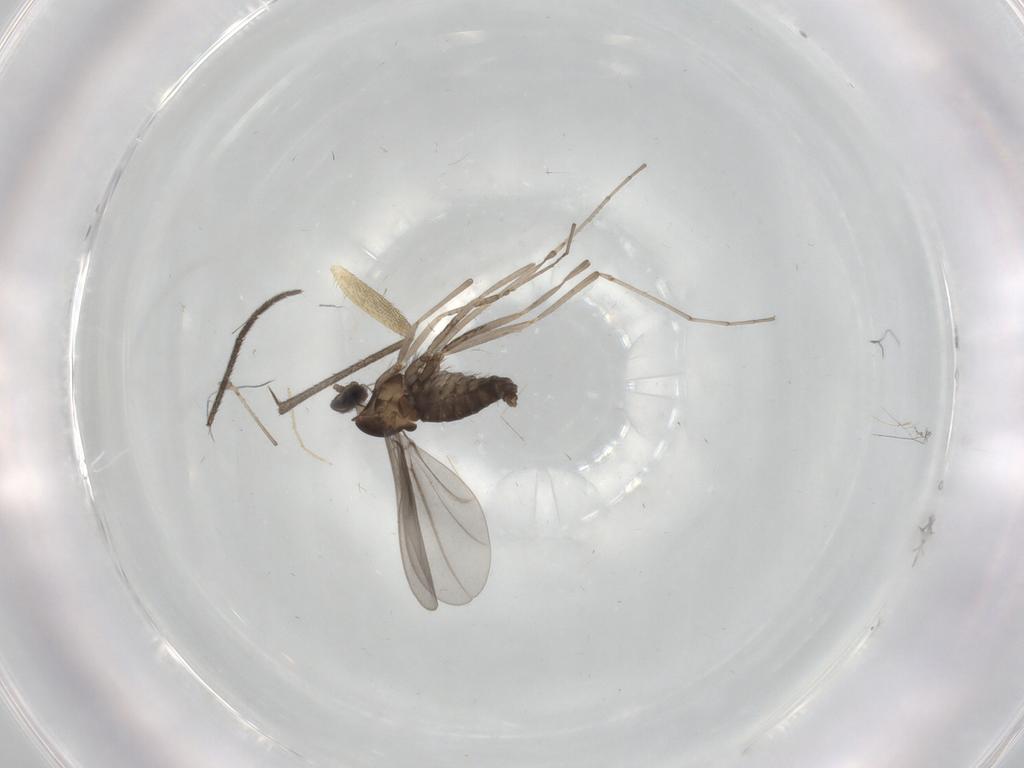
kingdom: Animalia
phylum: Arthropoda
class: Insecta
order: Diptera
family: Cecidomyiidae
